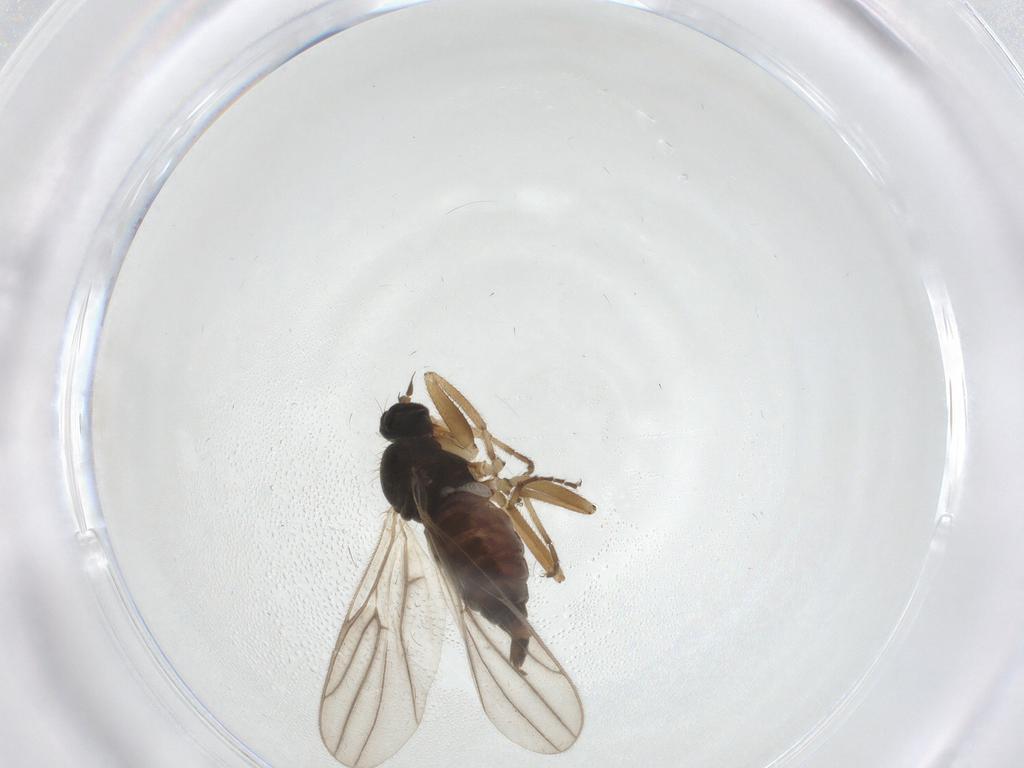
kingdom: Animalia
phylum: Arthropoda
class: Insecta
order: Diptera
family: Hybotidae
